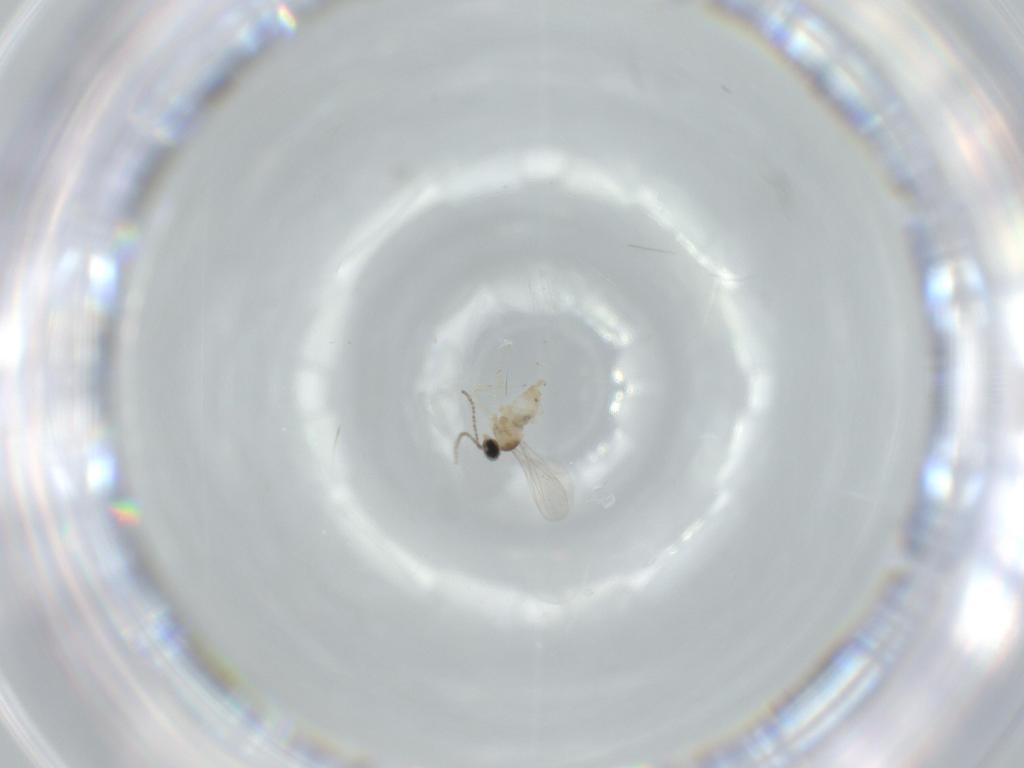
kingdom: Animalia
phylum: Arthropoda
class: Insecta
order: Diptera
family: Cecidomyiidae
